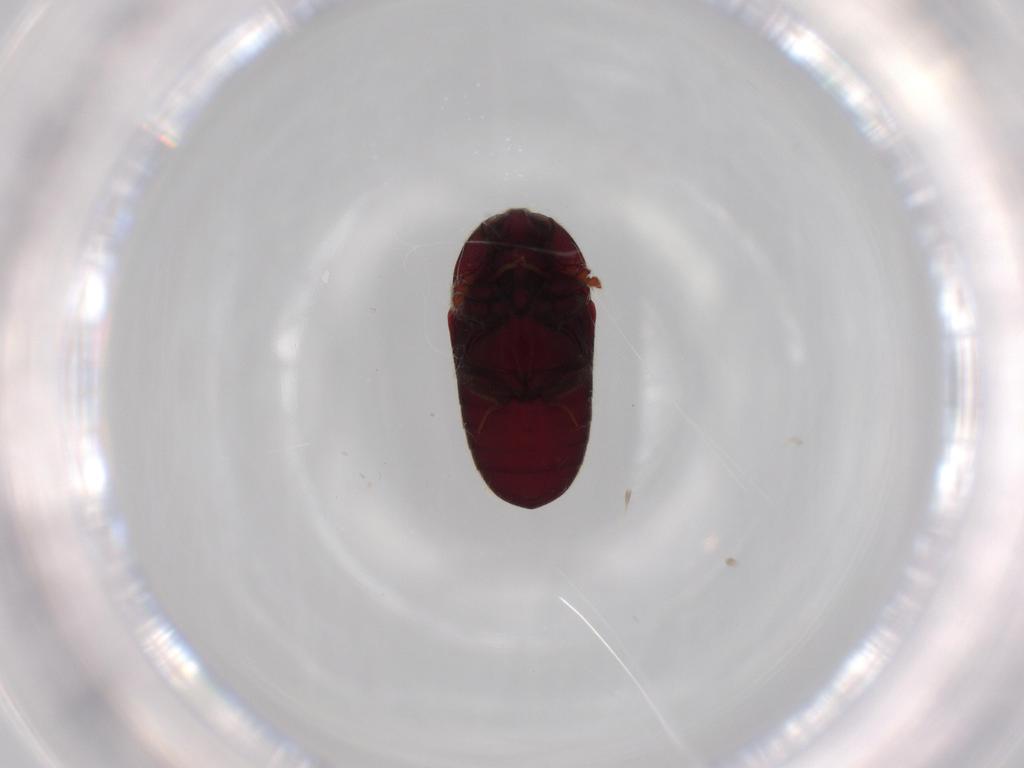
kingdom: Animalia
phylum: Arthropoda
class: Insecta
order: Coleoptera
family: Throscidae
